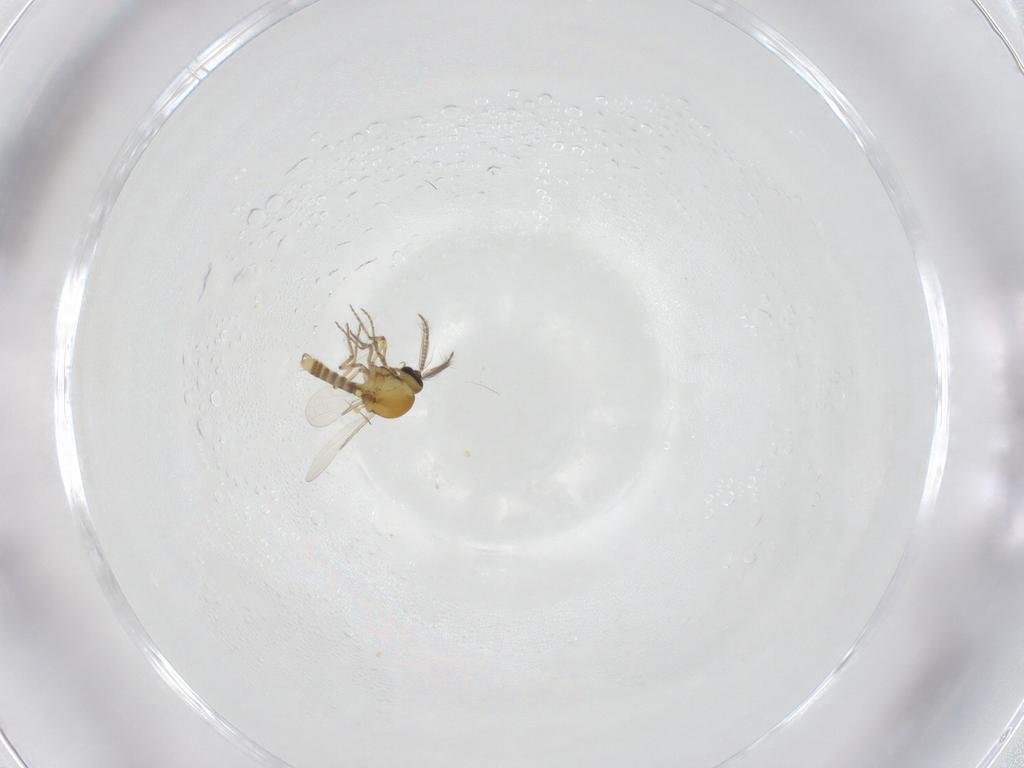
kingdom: Animalia
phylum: Arthropoda
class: Insecta
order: Diptera
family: Ceratopogonidae
